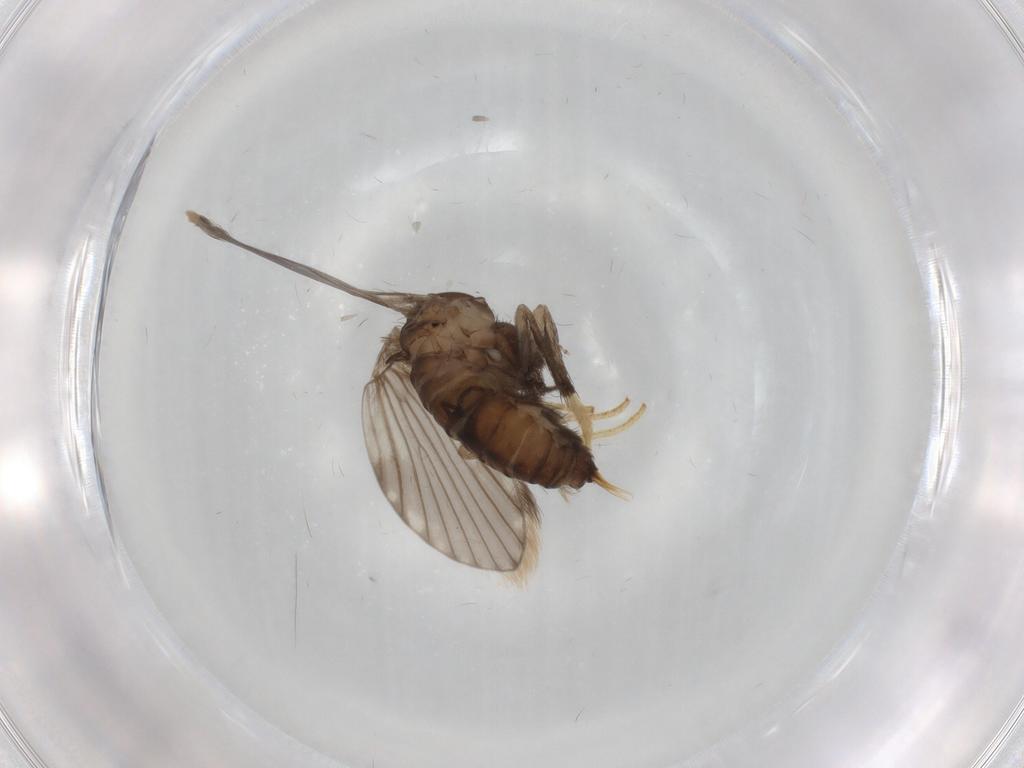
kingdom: Animalia
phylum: Arthropoda
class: Insecta
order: Diptera
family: Psychodidae
